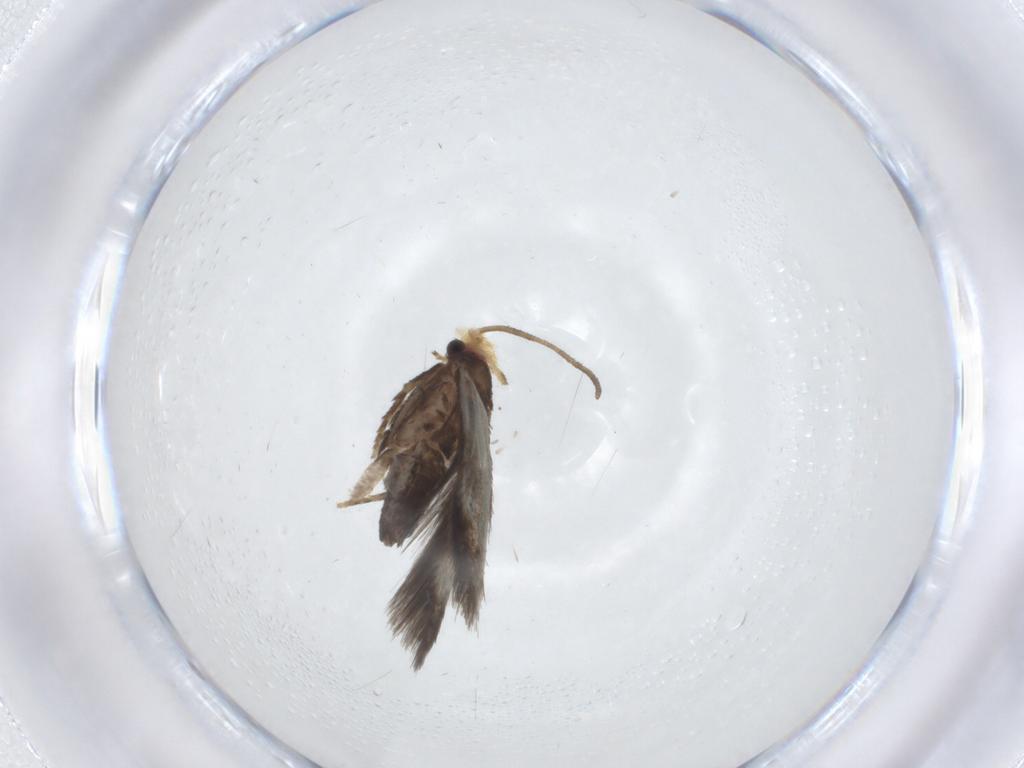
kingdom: Animalia
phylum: Arthropoda
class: Insecta
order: Lepidoptera
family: Nepticulidae
